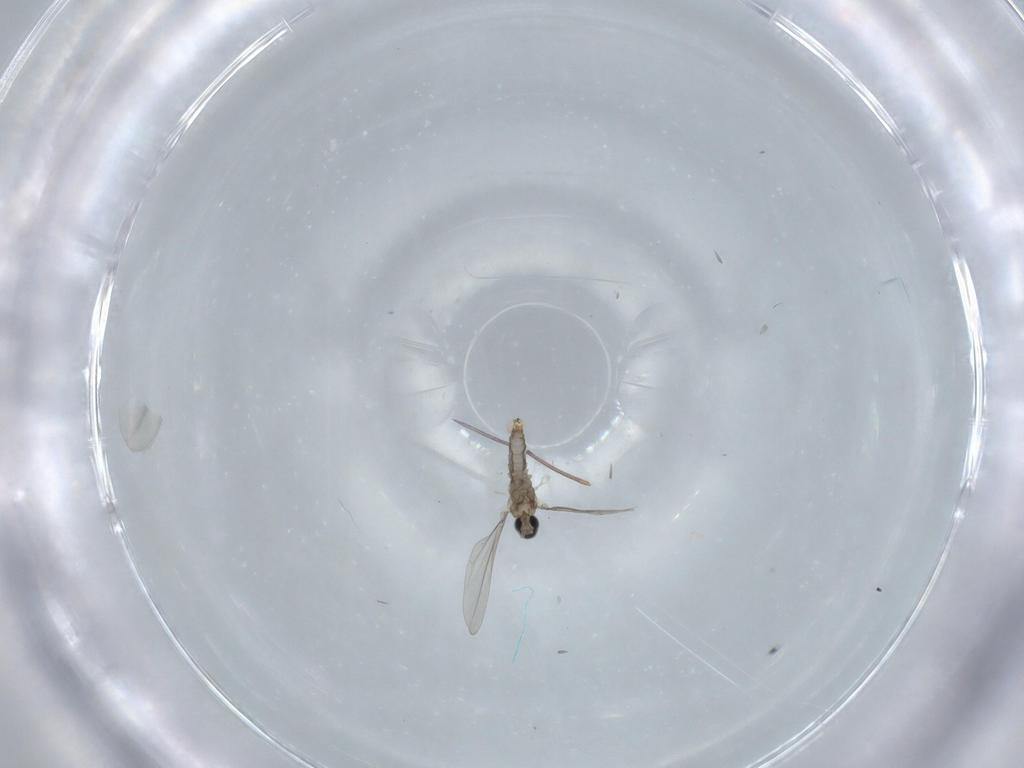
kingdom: Animalia
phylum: Arthropoda
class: Insecta
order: Diptera
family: Cecidomyiidae
